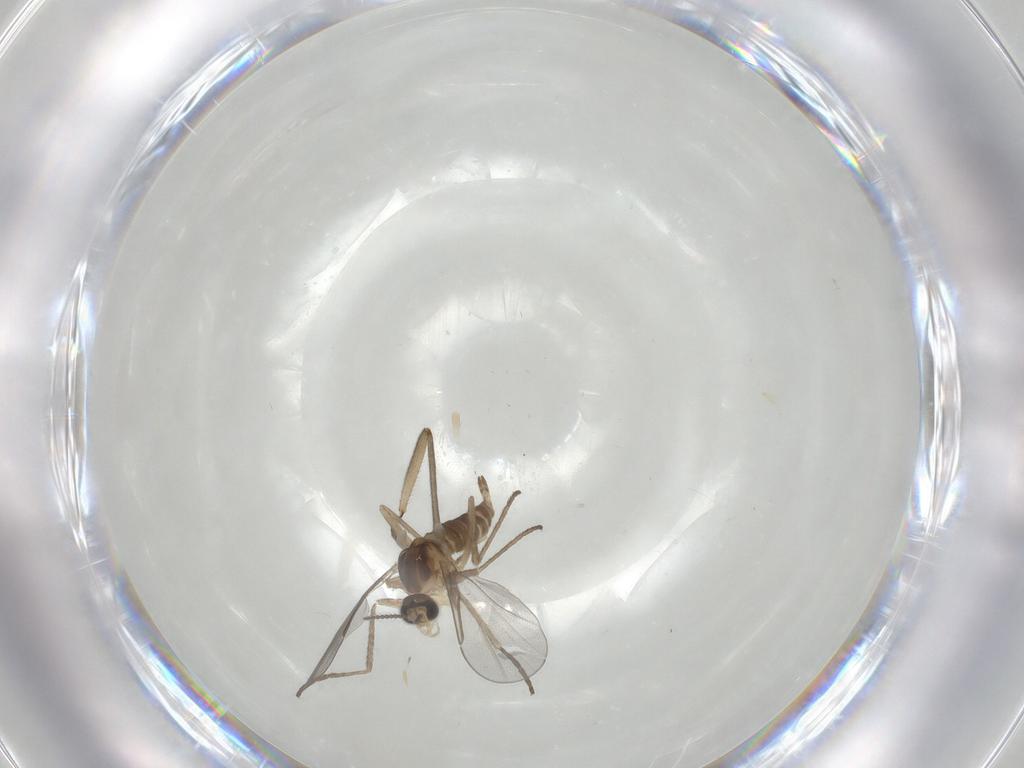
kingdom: Animalia
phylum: Arthropoda
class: Insecta
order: Diptera
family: Sciaridae
